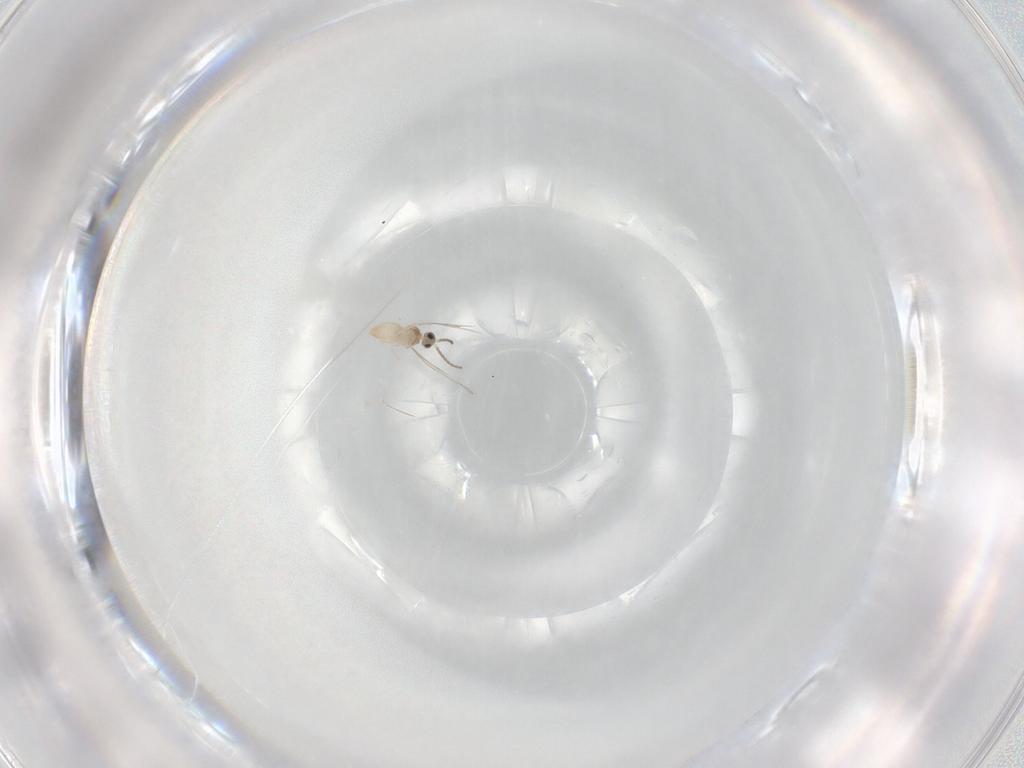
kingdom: Animalia
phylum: Arthropoda
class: Insecta
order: Diptera
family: Cecidomyiidae
